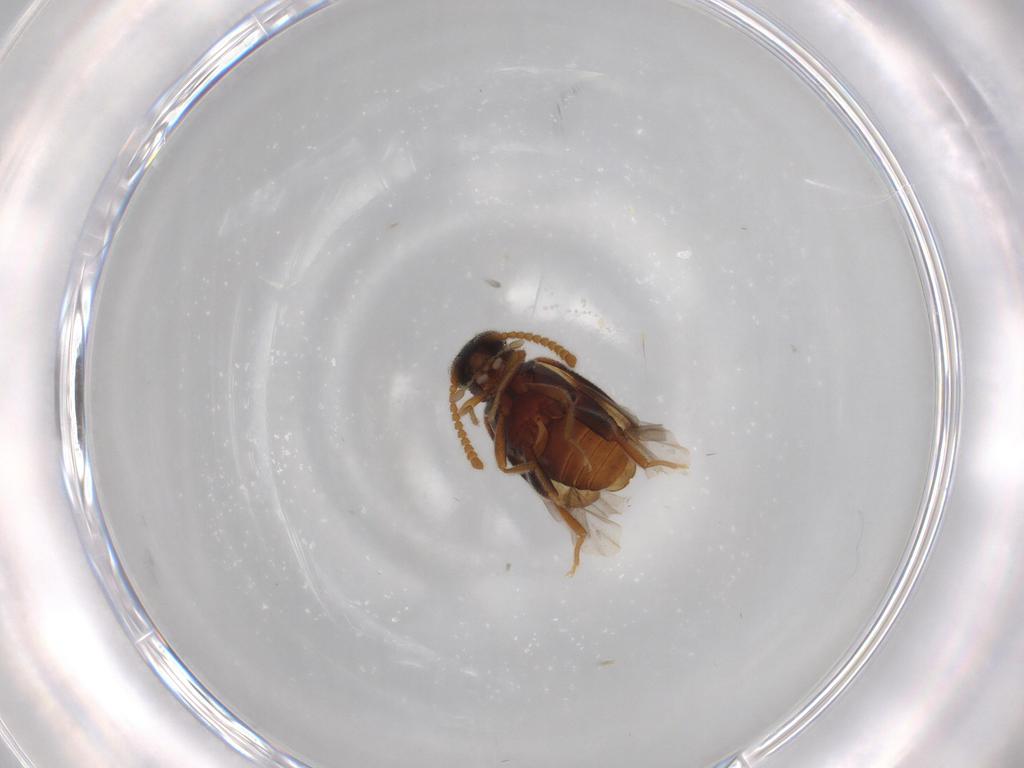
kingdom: Animalia
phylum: Arthropoda
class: Insecta
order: Coleoptera
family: Aderidae
